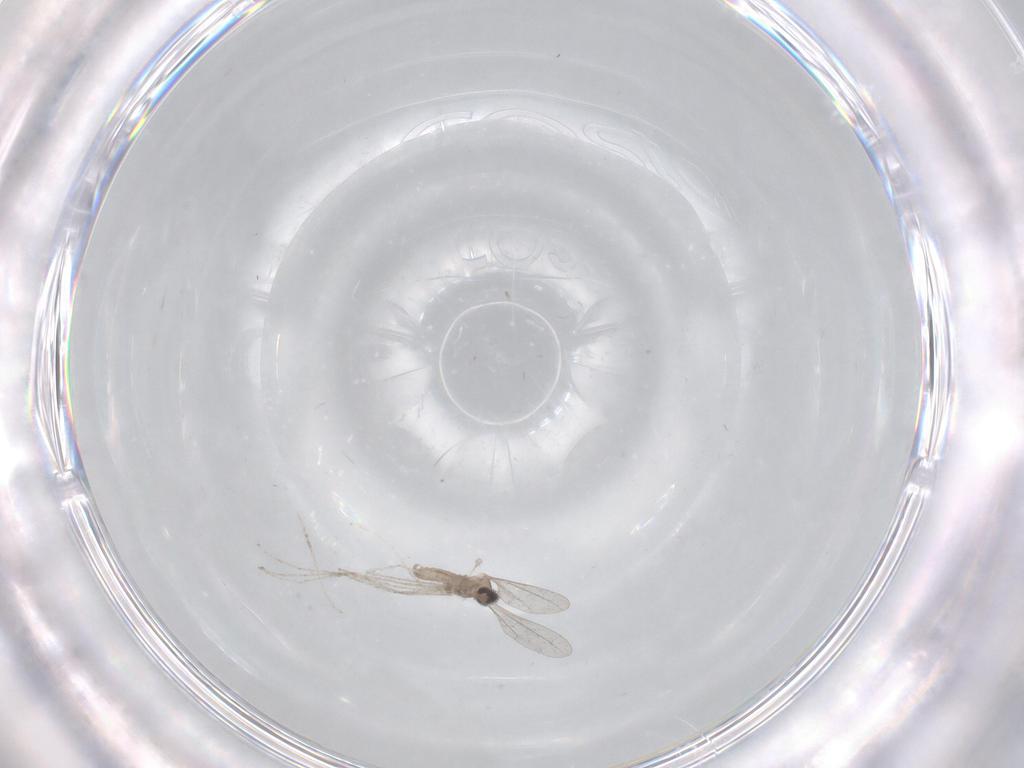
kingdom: Animalia
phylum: Arthropoda
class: Insecta
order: Diptera
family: Cecidomyiidae
